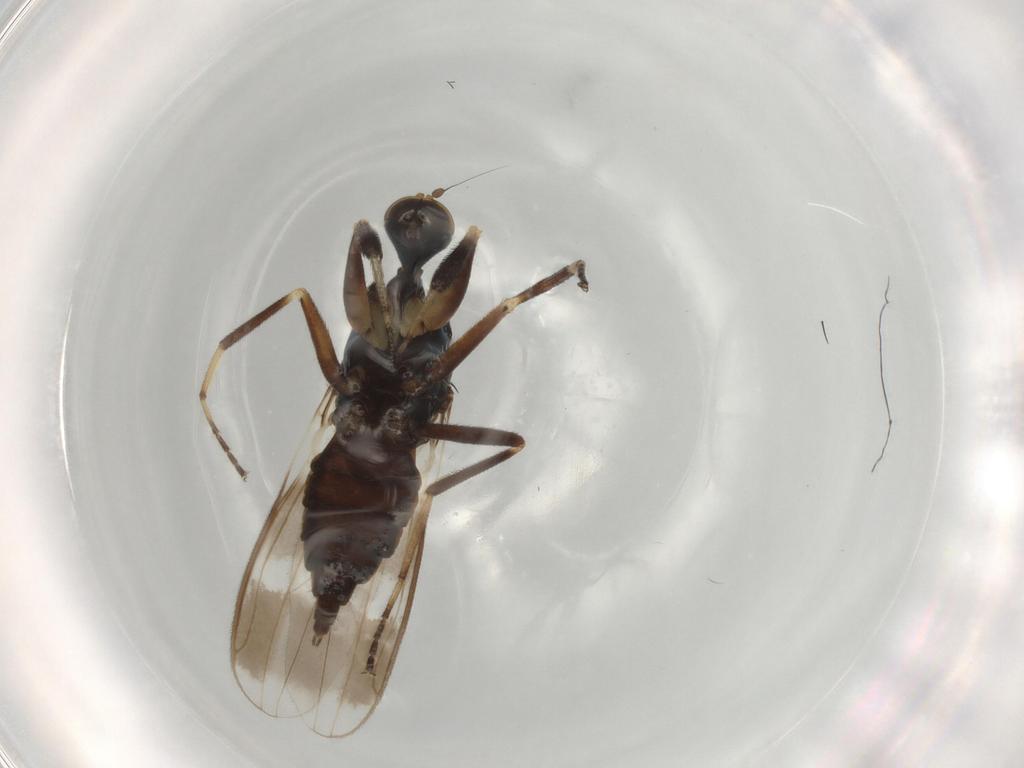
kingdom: Animalia
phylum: Arthropoda
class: Insecta
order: Diptera
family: Hybotidae
